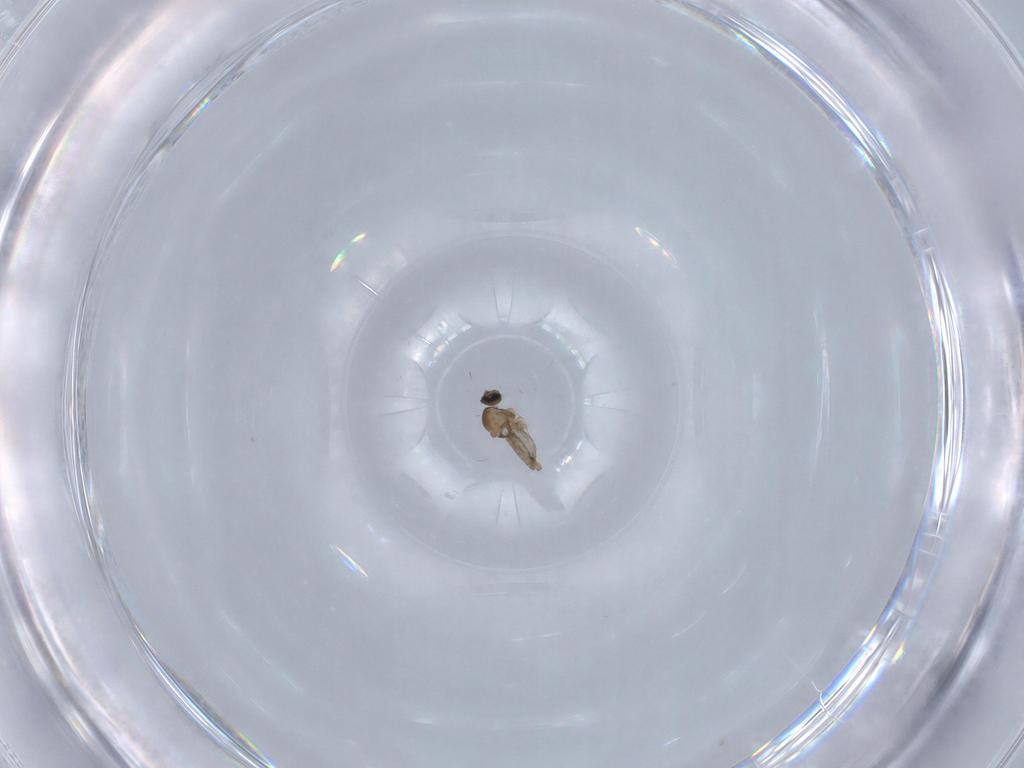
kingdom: Animalia
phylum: Arthropoda
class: Insecta
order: Diptera
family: Cecidomyiidae
